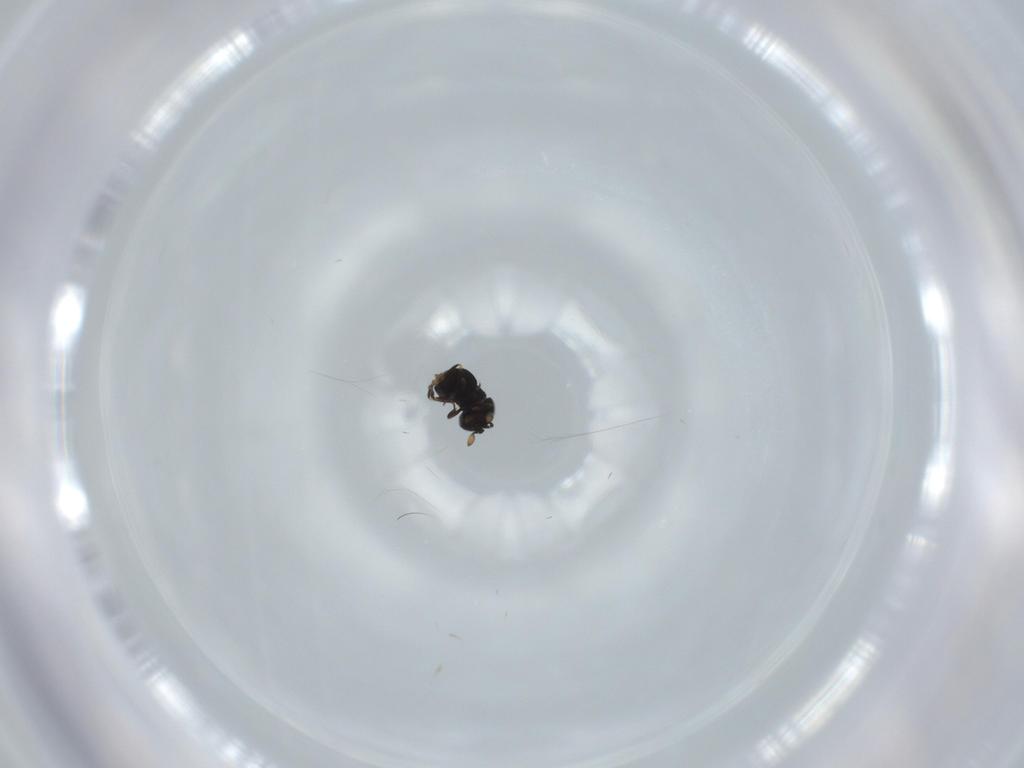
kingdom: Animalia
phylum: Arthropoda
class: Insecta
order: Hymenoptera
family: Scelionidae
